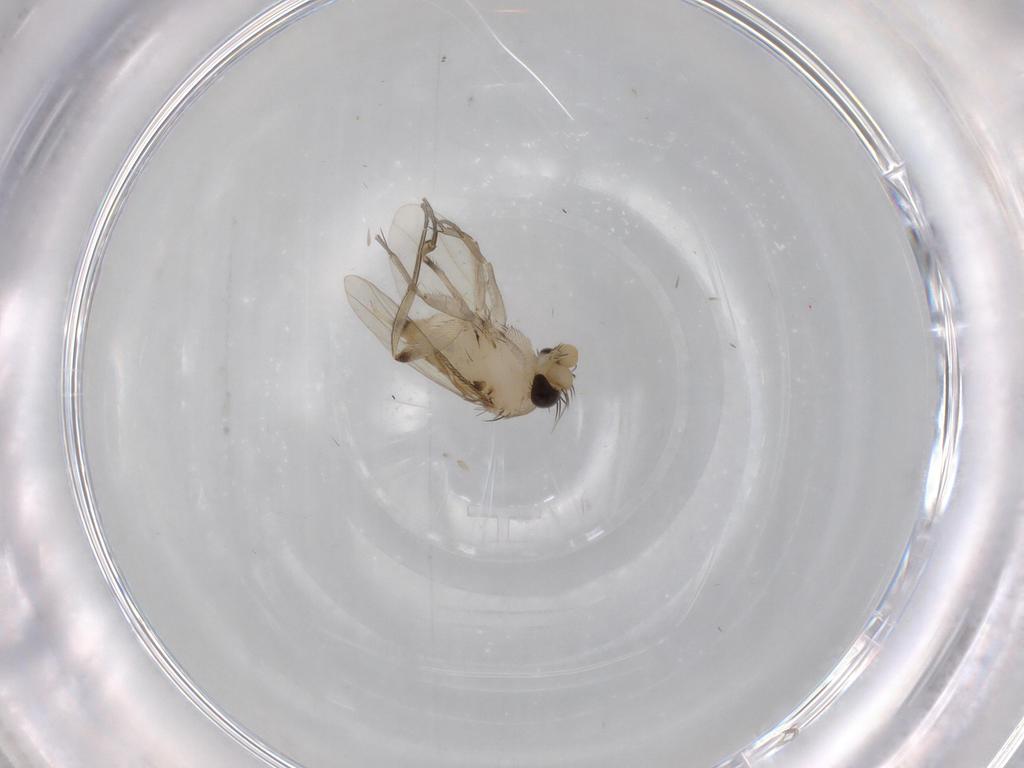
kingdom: Animalia
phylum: Arthropoda
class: Insecta
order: Diptera
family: Phoridae
